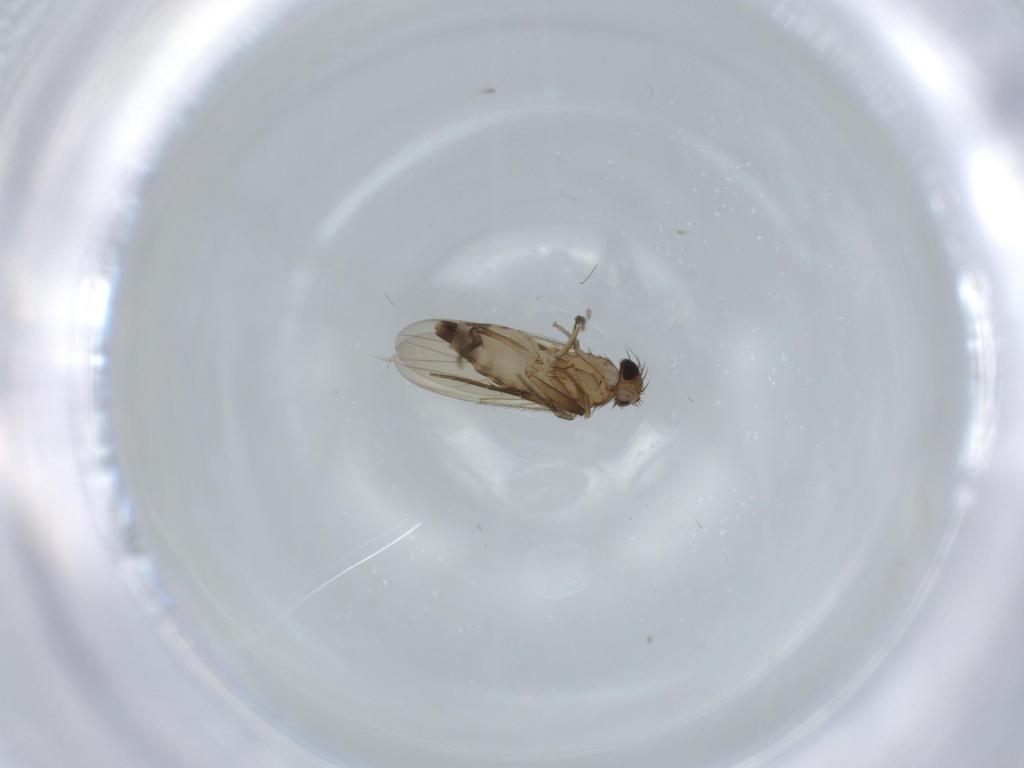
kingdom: Animalia
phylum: Arthropoda
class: Insecta
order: Diptera
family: Phoridae
